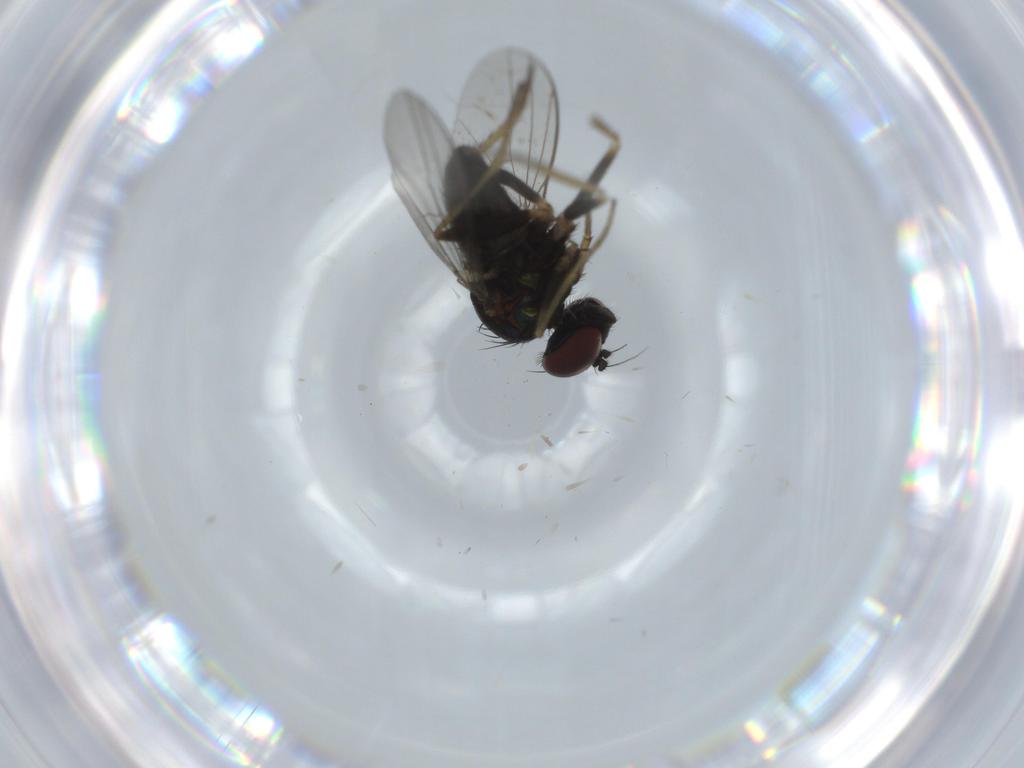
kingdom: Animalia
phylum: Arthropoda
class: Insecta
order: Diptera
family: Dolichopodidae
